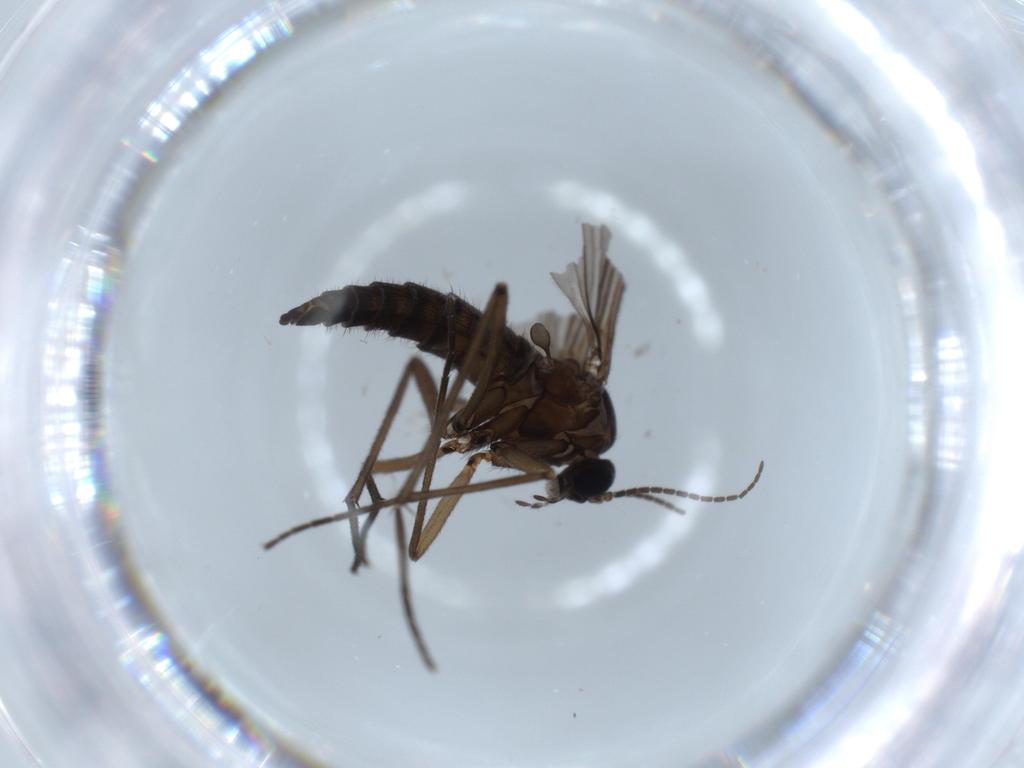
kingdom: Animalia
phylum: Arthropoda
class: Insecta
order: Diptera
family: Sciaridae
